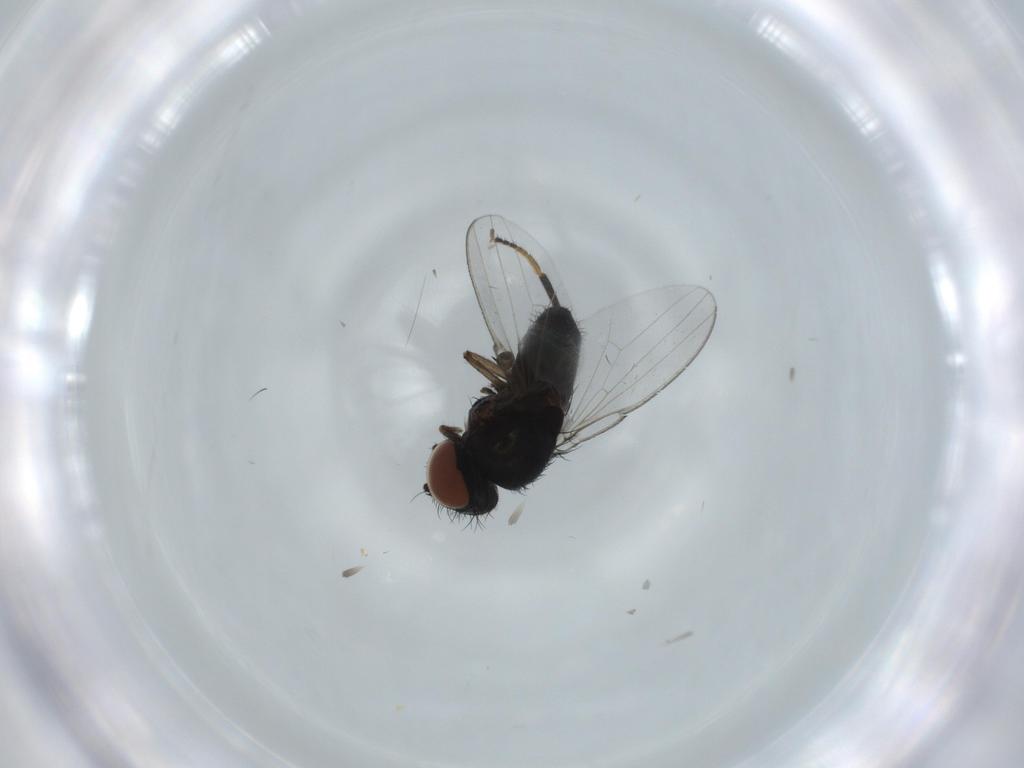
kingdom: Animalia
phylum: Arthropoda
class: Insecta
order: Diptera
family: Milichiidae
